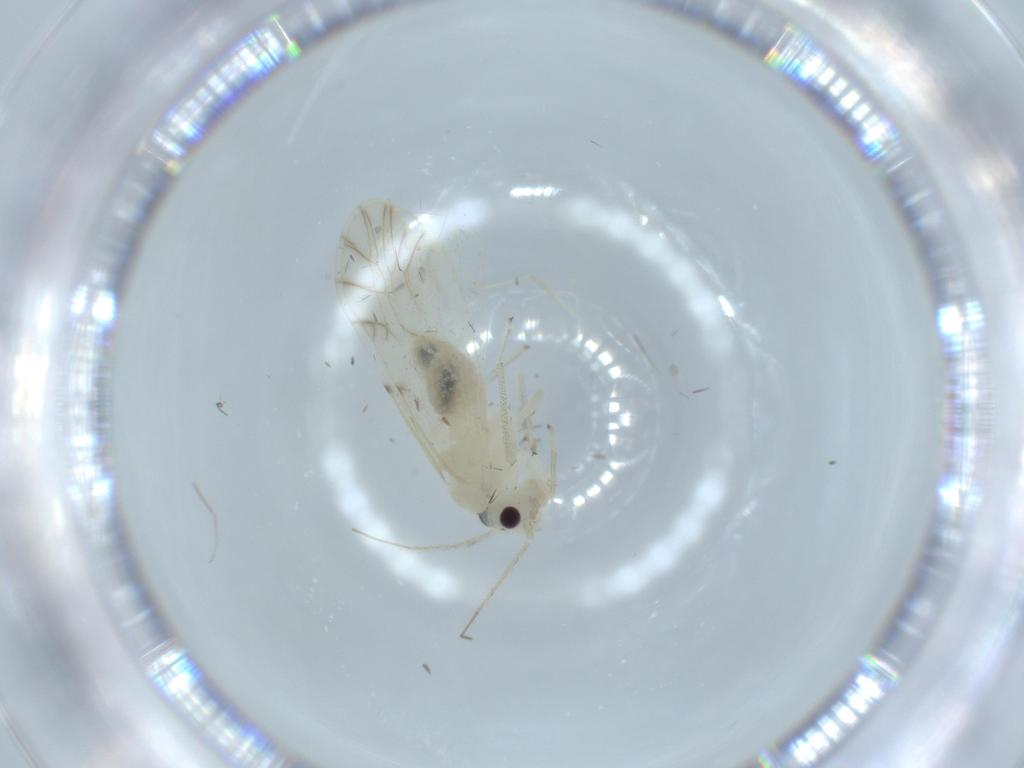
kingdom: Animalia
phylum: Arthropoda
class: Insecta
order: Psocodea
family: Caeciliusidae
